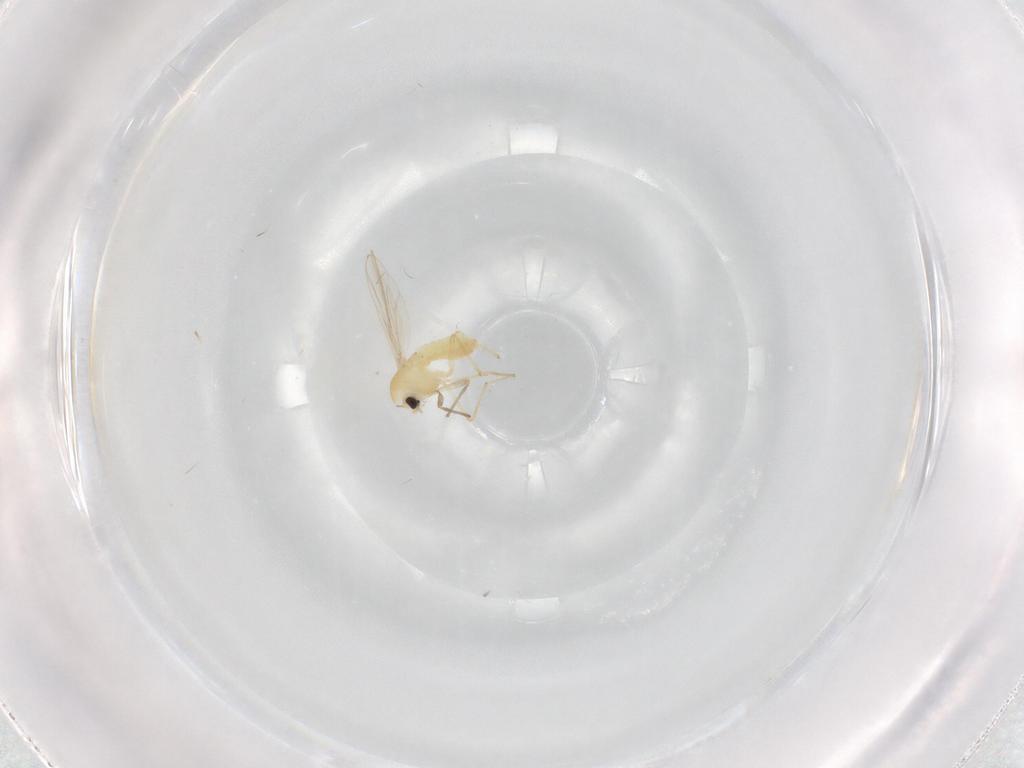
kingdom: Animalia
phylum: Arthropoda
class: Insecta
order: Diptera
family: Chironomidae
